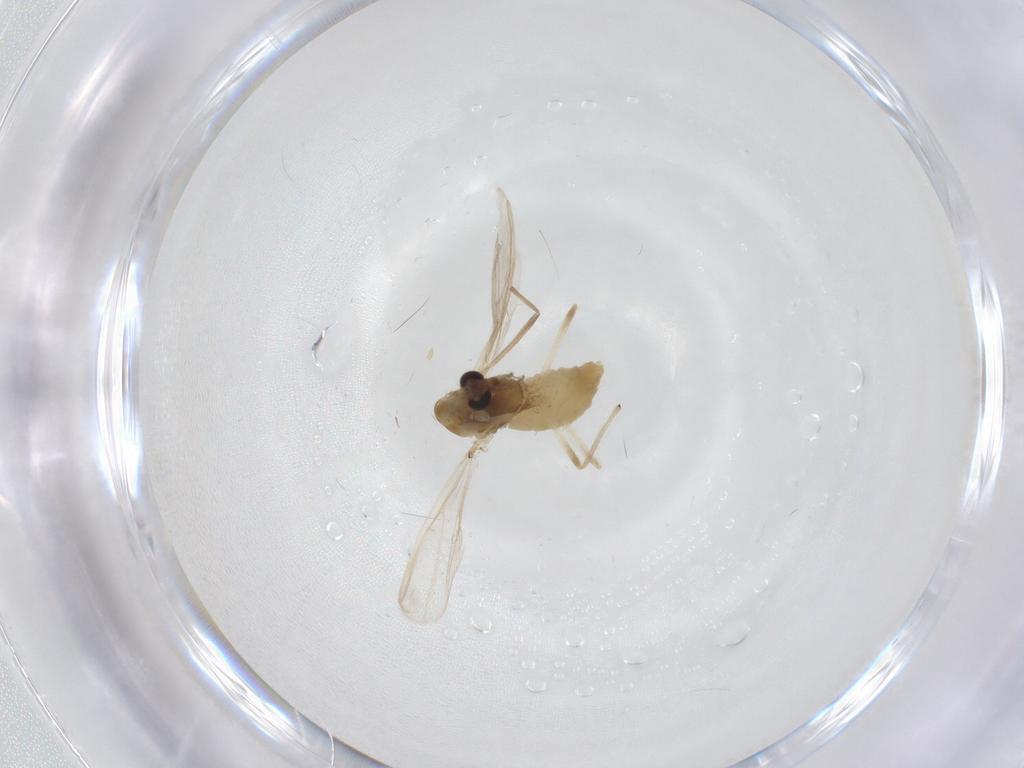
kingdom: Animalia
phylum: Arthropoda
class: Insecta
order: Diptera
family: Chironomidae
